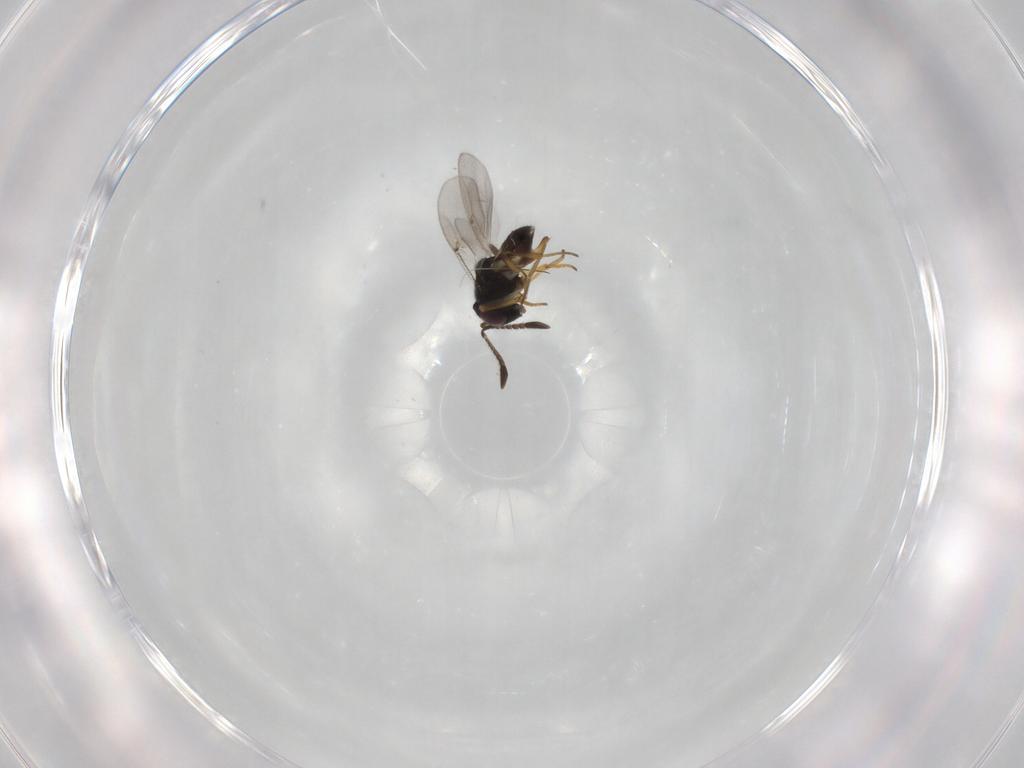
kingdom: Animalia
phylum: Arthropoda
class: Insecta
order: Hymenoptera
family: Ichneumonidae
